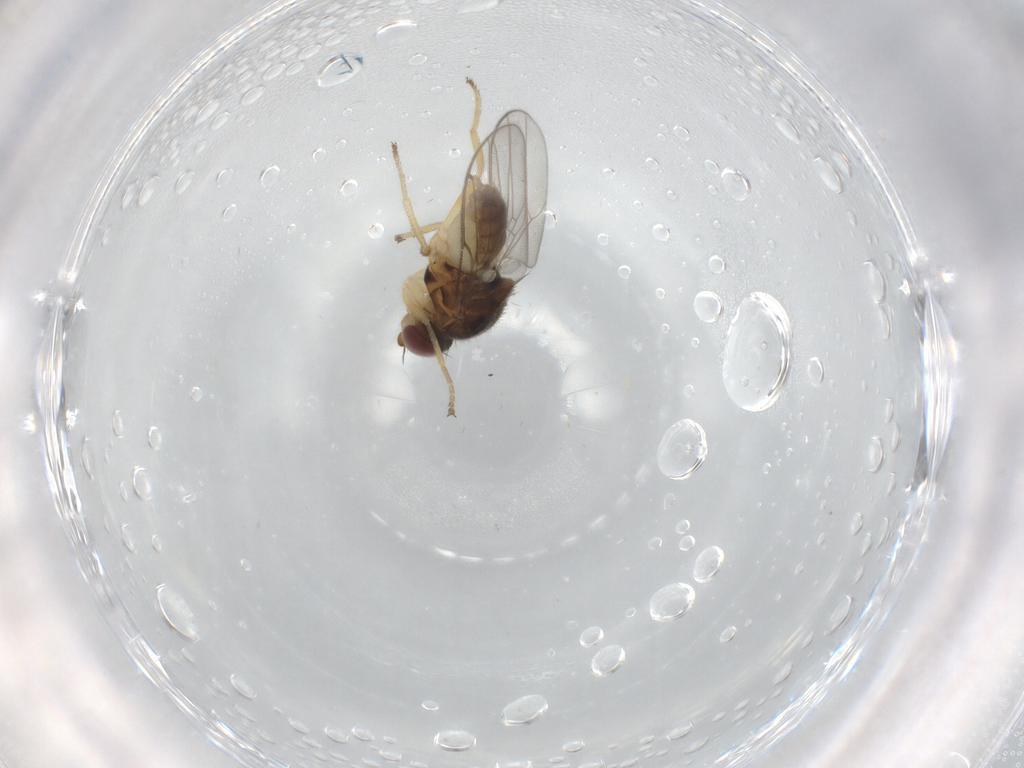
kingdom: Animalia
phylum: Arthropoda
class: Insecta
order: Diptera
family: Chloropidae
